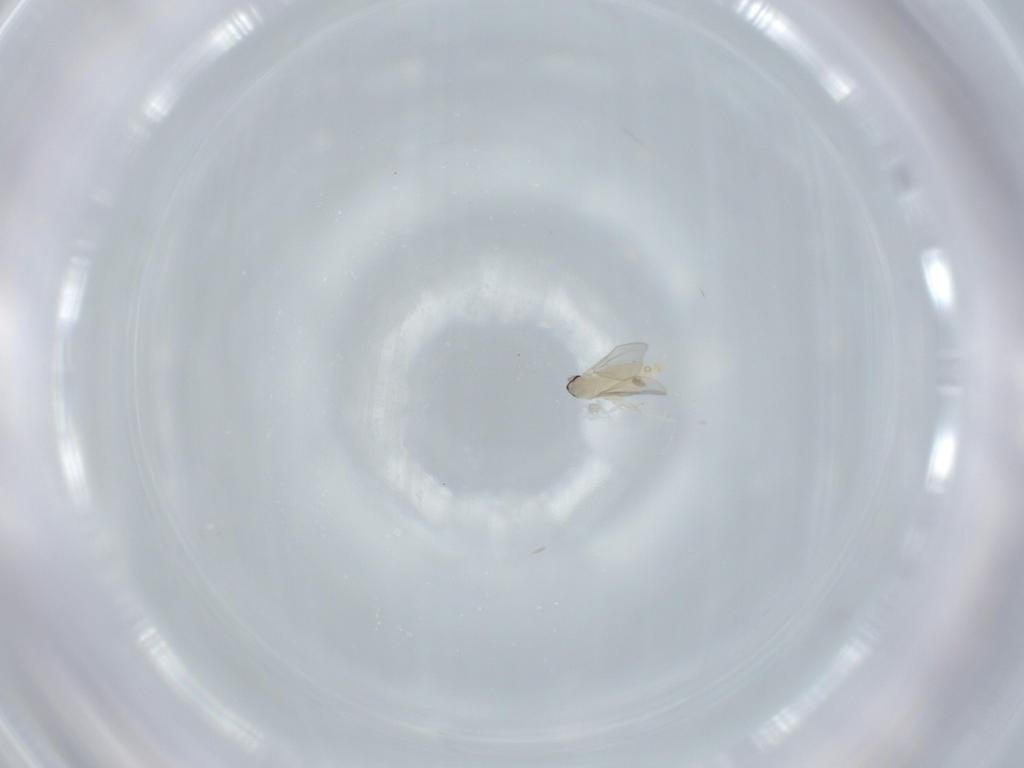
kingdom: Animalia
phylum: Arthropoda
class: Insecta
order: Diptera
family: Cecidomyiidae
